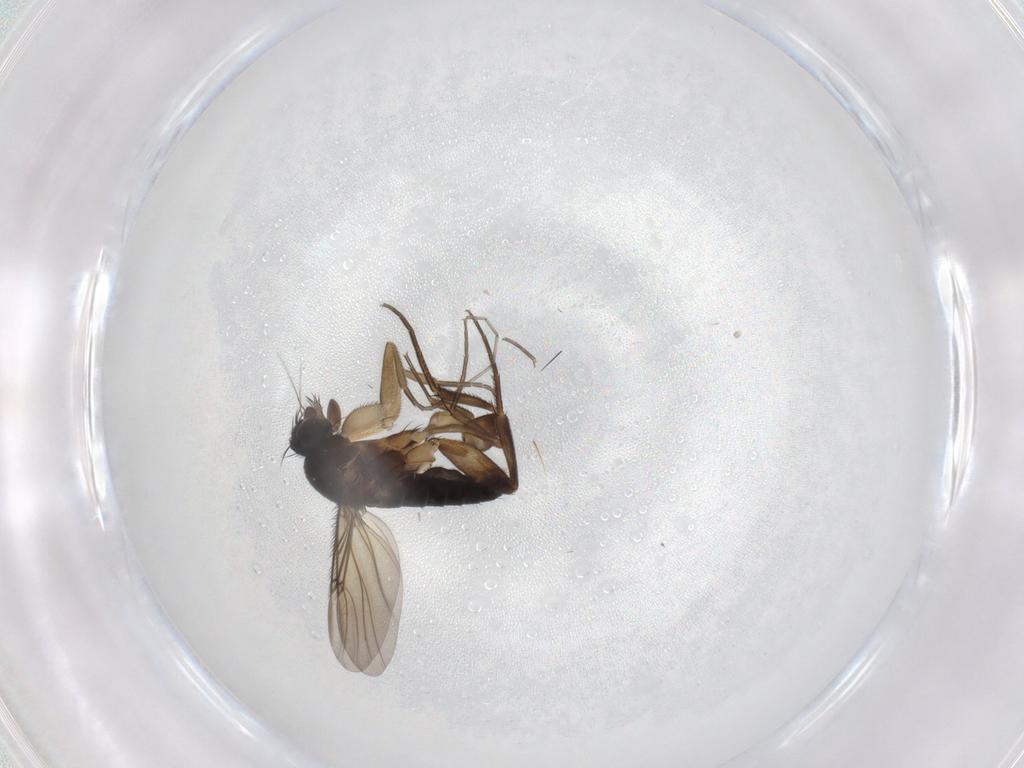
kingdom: Animalia
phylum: Arthropoda
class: Insecta
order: Diptera
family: Phoridae
